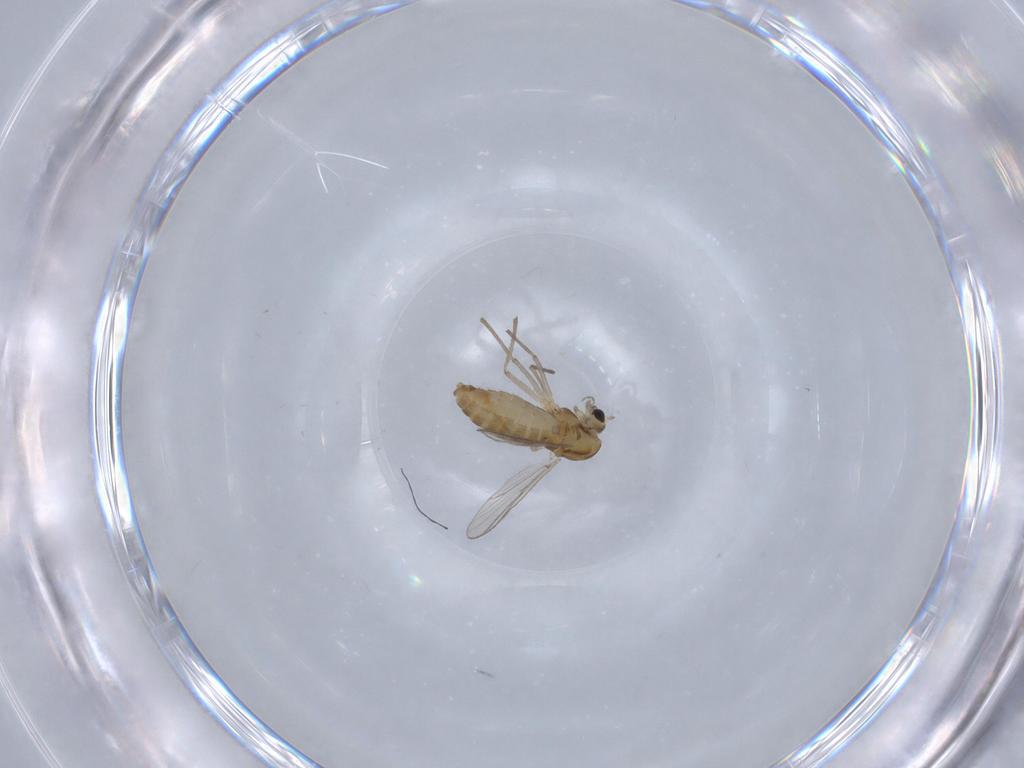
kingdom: Animalia
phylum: Arthropoda
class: Insecta
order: Diptera
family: Chironomidae
